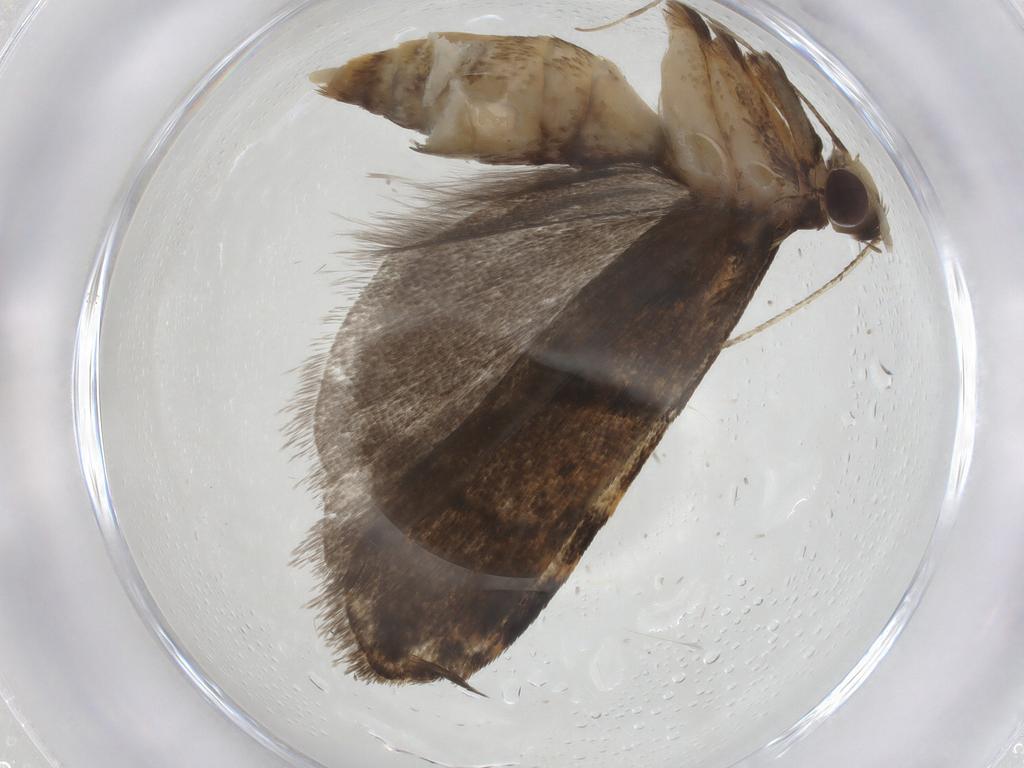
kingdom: Animalia
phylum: Arthropoda
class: Insecta
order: Lepidoptera
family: Autostichidae
